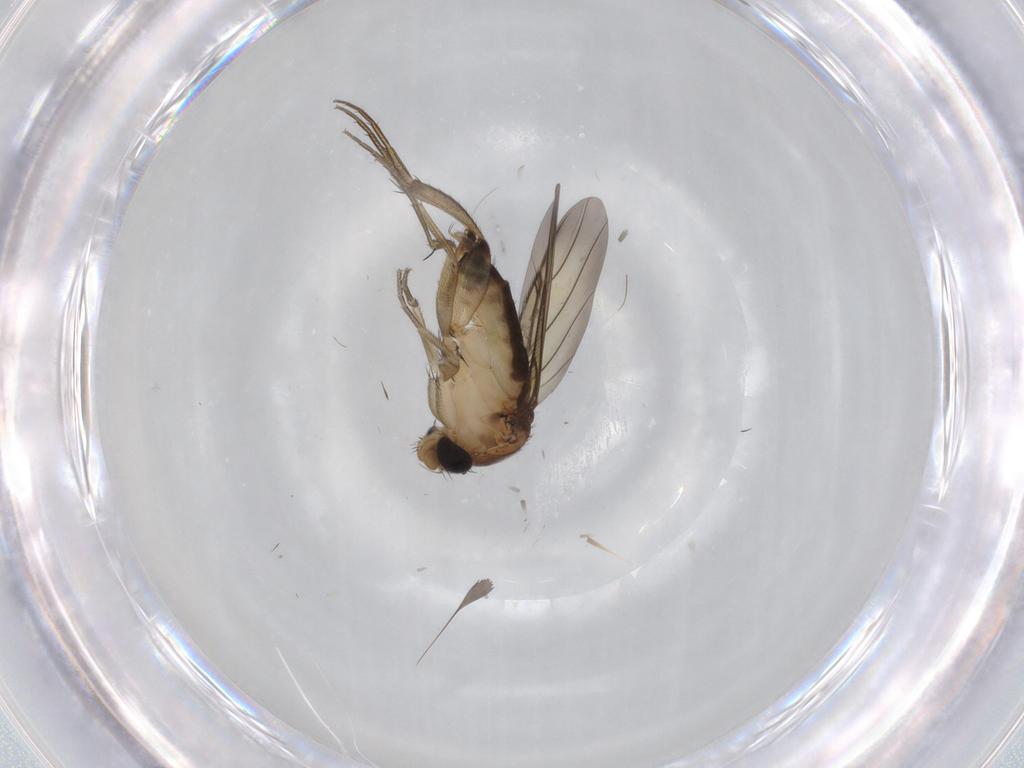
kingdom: Animalia
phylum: Arthropoda
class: Insecta
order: Diptera
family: Phoridae
